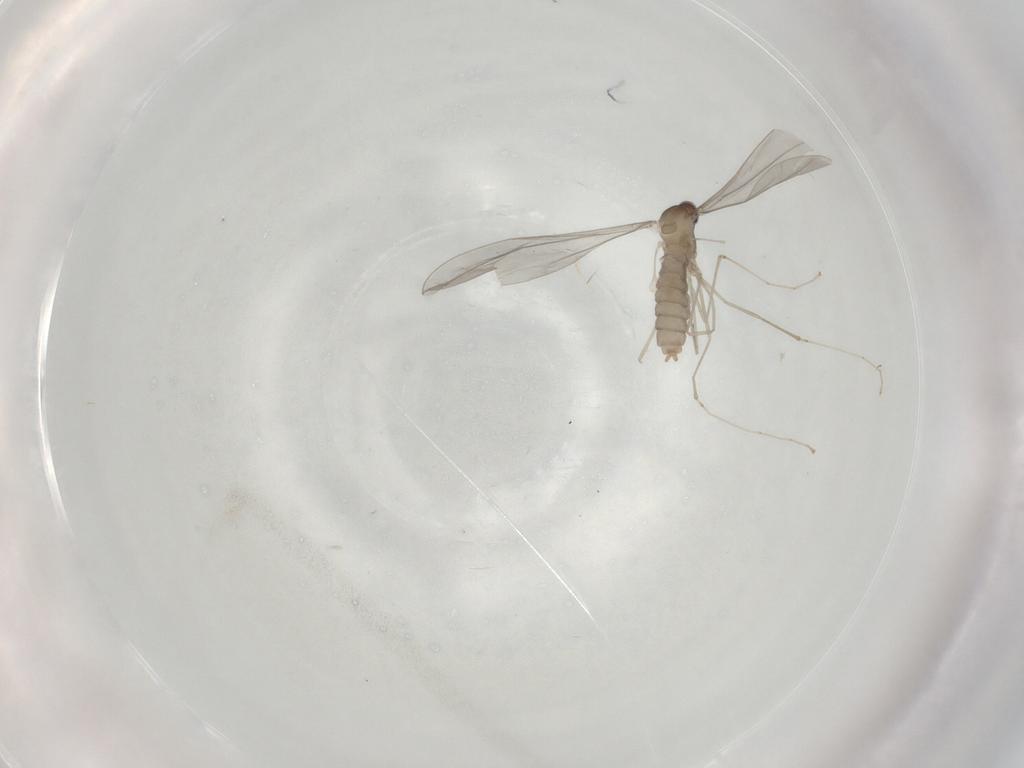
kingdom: Animalia
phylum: Arthropoda
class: Insecta
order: Diptera
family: Cecidomyiidae
